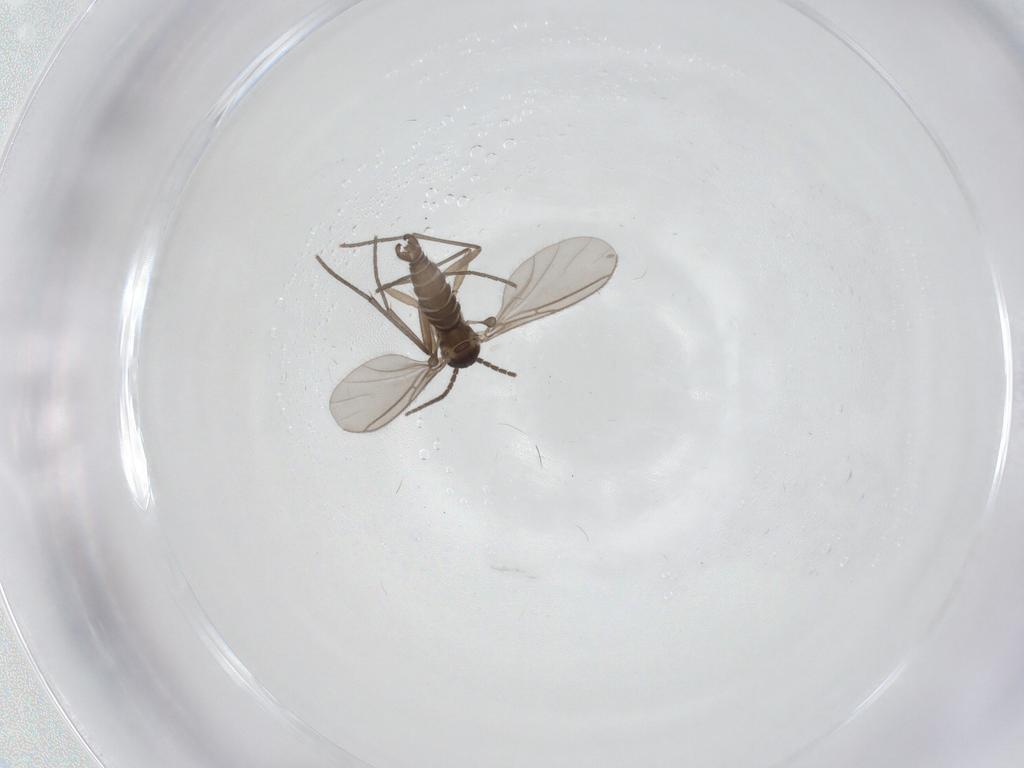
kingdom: Animalia
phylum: Arthropoda
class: Insecta
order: Diptera
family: Sciaridae
